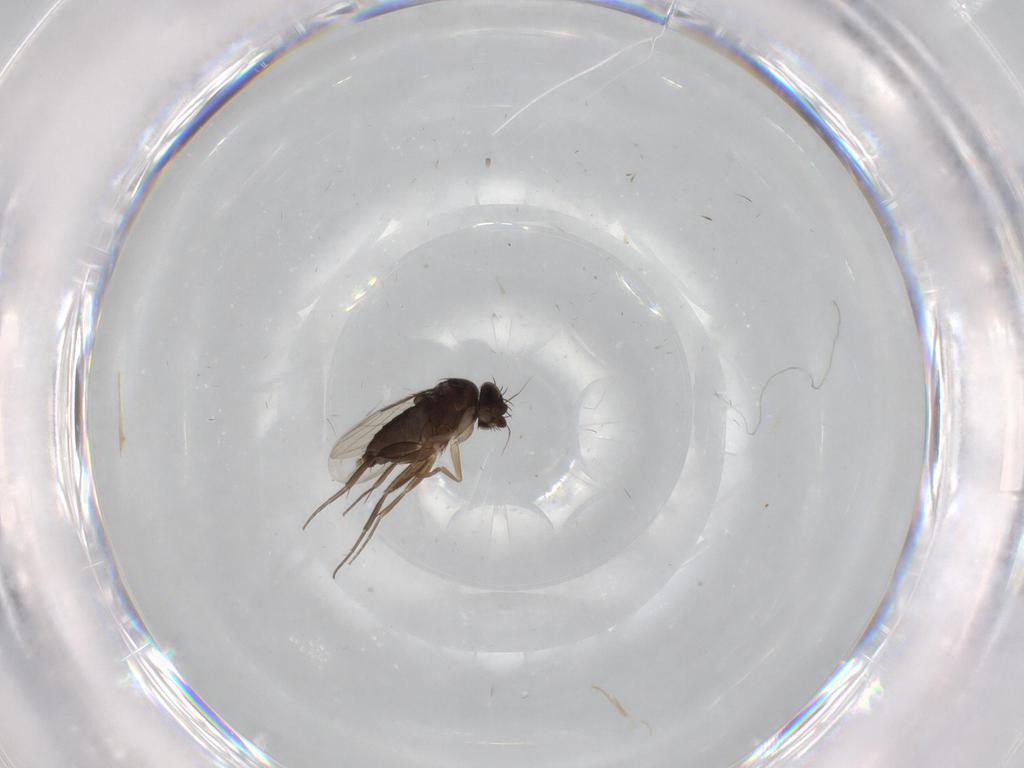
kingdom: Animalia
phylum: Arthropoda
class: Insecta
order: Diptera
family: Phoridae
